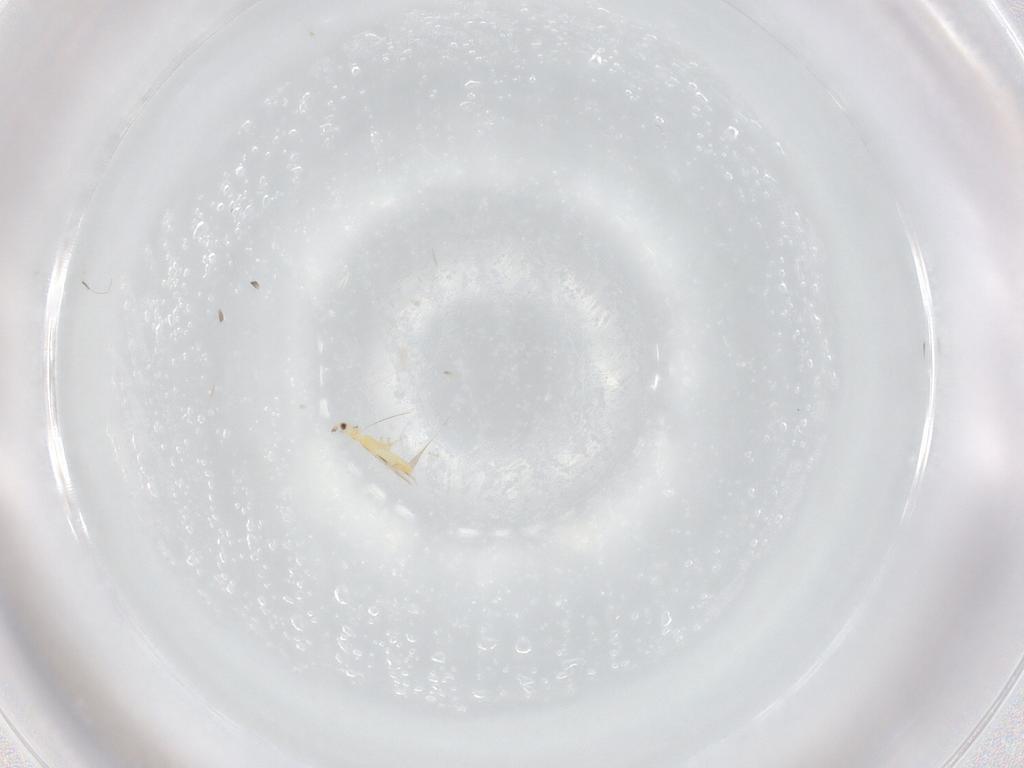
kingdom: Animalia
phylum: Arthropoda
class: Insecta
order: Thysanoptera
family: Thripidae
